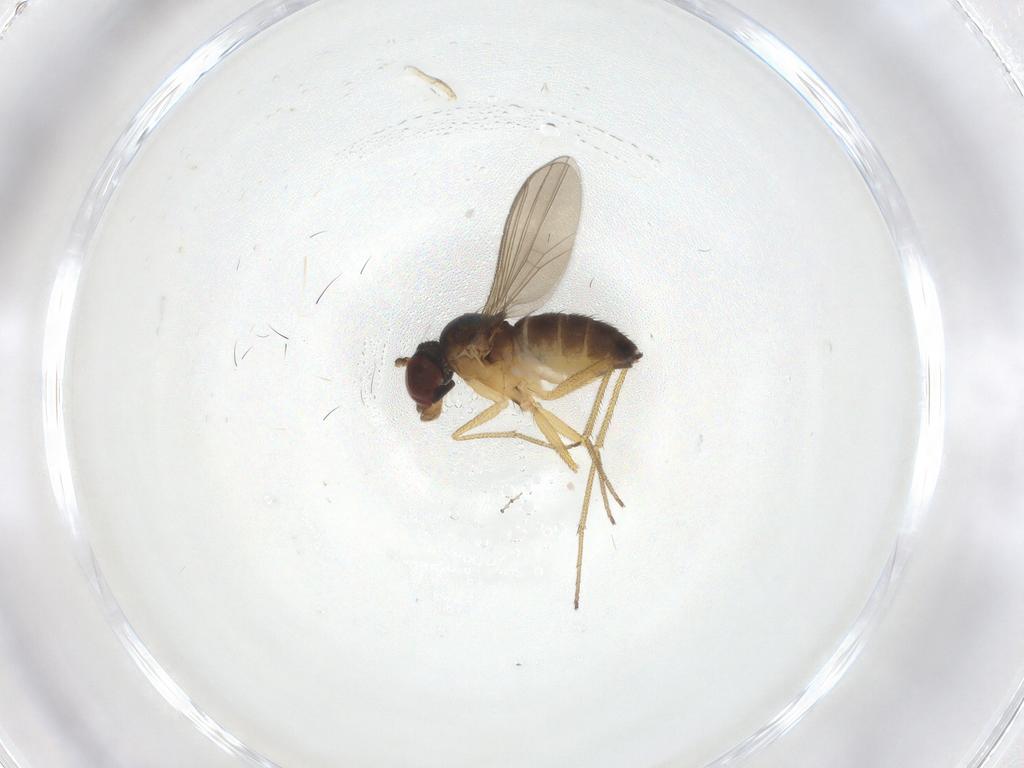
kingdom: Animalia
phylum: Arthropoda
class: Insecta
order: Diptera
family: Dolichopodidae
